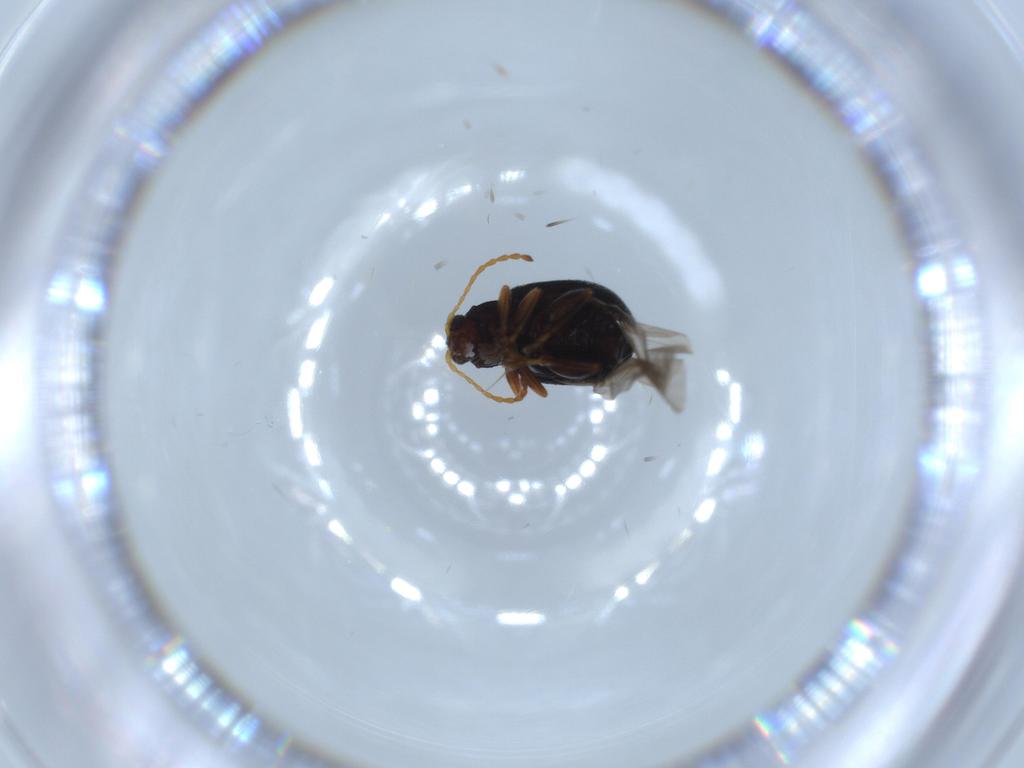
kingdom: Animalia
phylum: Arthropoda
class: Insecta
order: Coleoptera
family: Chrysomelidae
